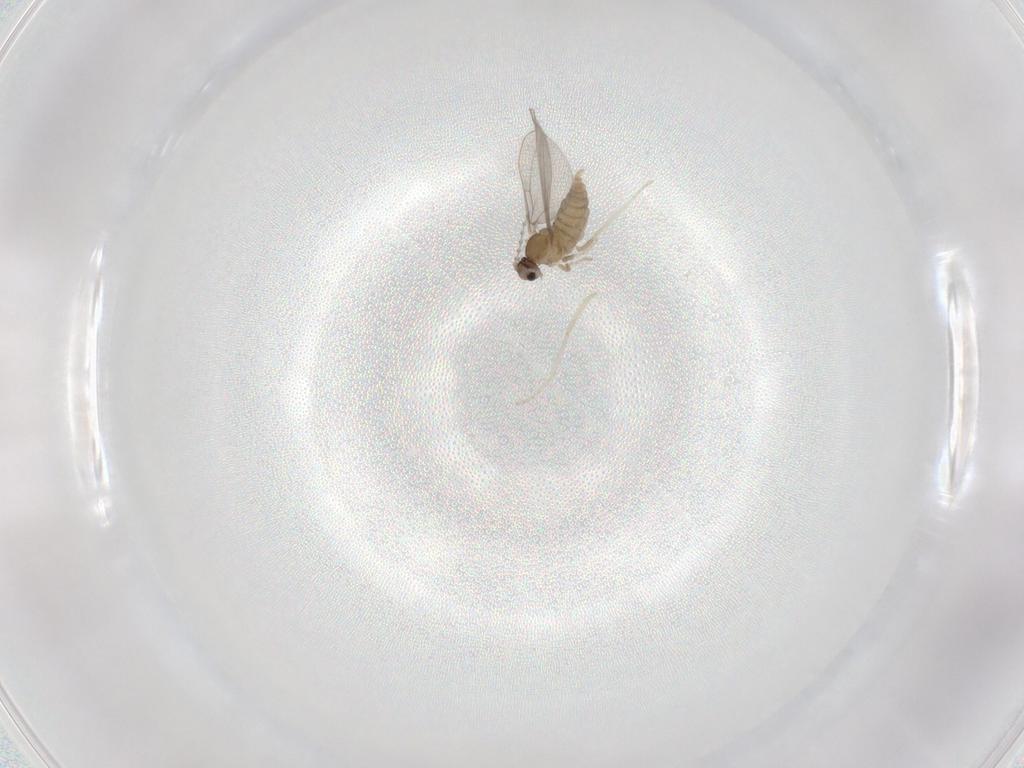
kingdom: Animalia
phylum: Arthropoda
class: Insecta
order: Diptera
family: Cecidomyiidae
